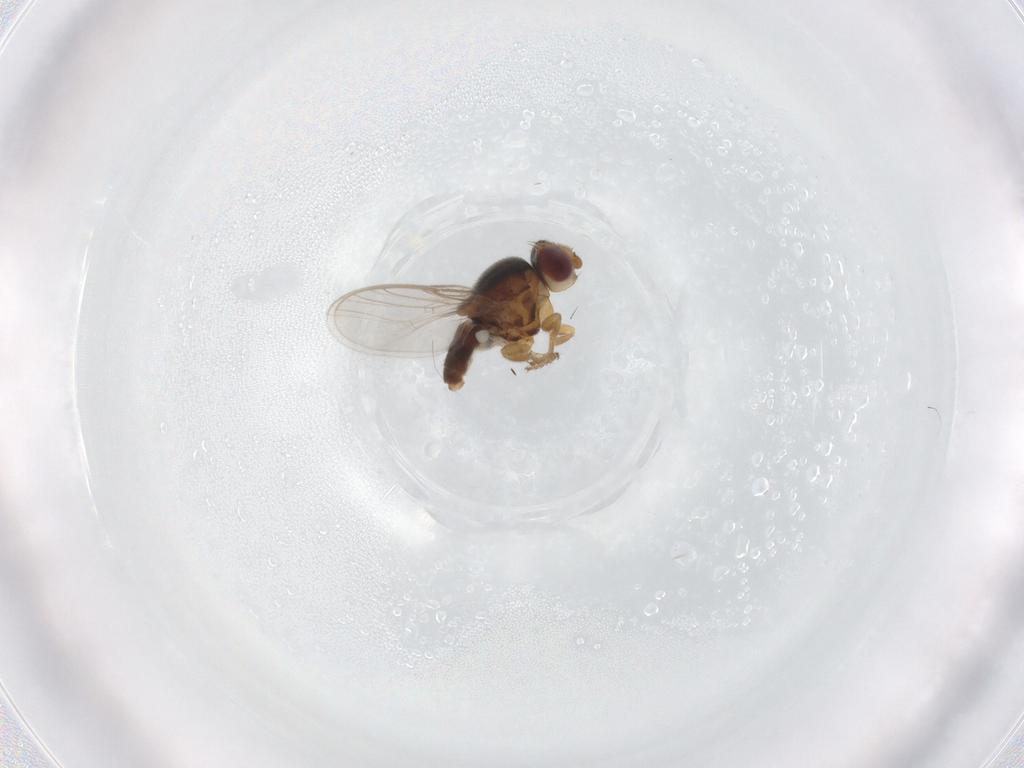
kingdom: Animalia
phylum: Arthropoda
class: Insecta
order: Diptera
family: Chloropidae
